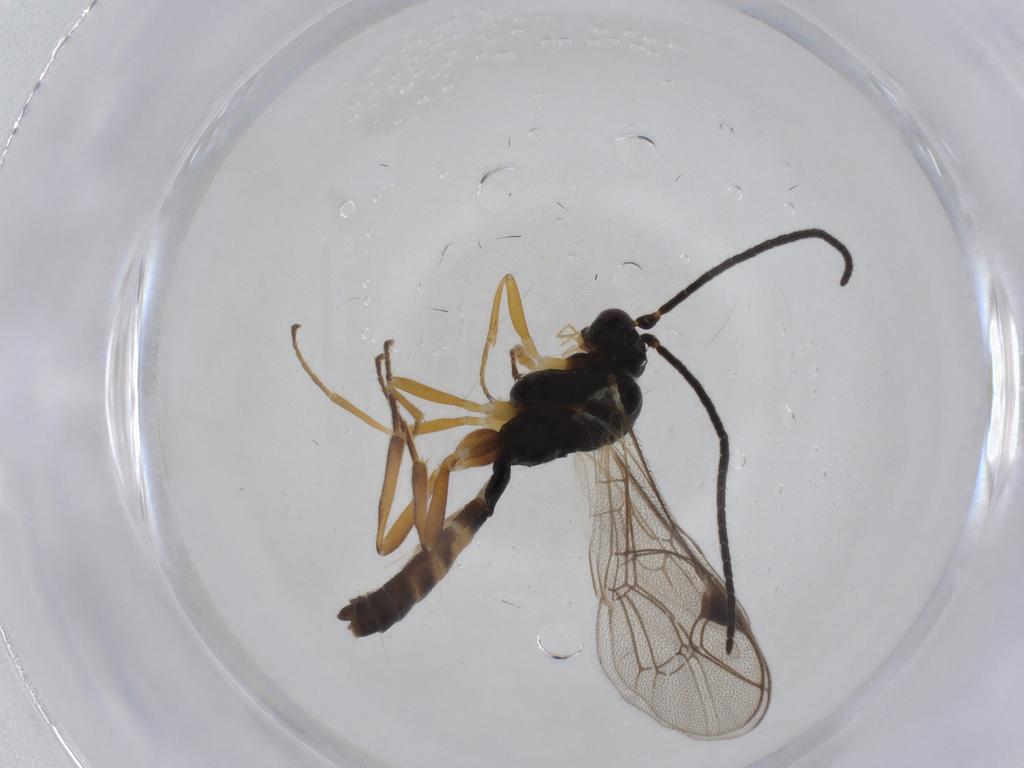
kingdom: Animalia
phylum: Arthropoda
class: Insecta
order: Hymenoptera
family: Ichneumonidae
